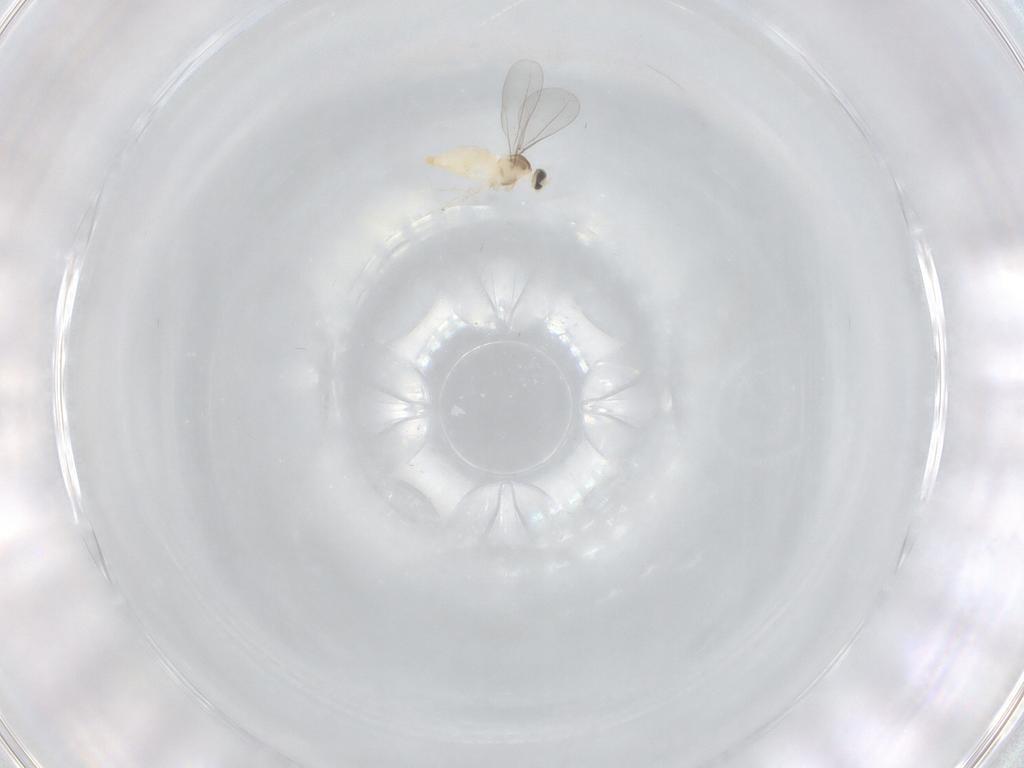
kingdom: Animalia
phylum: Arthropoda
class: Insecta
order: Diptera
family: Cecidomyiidae
